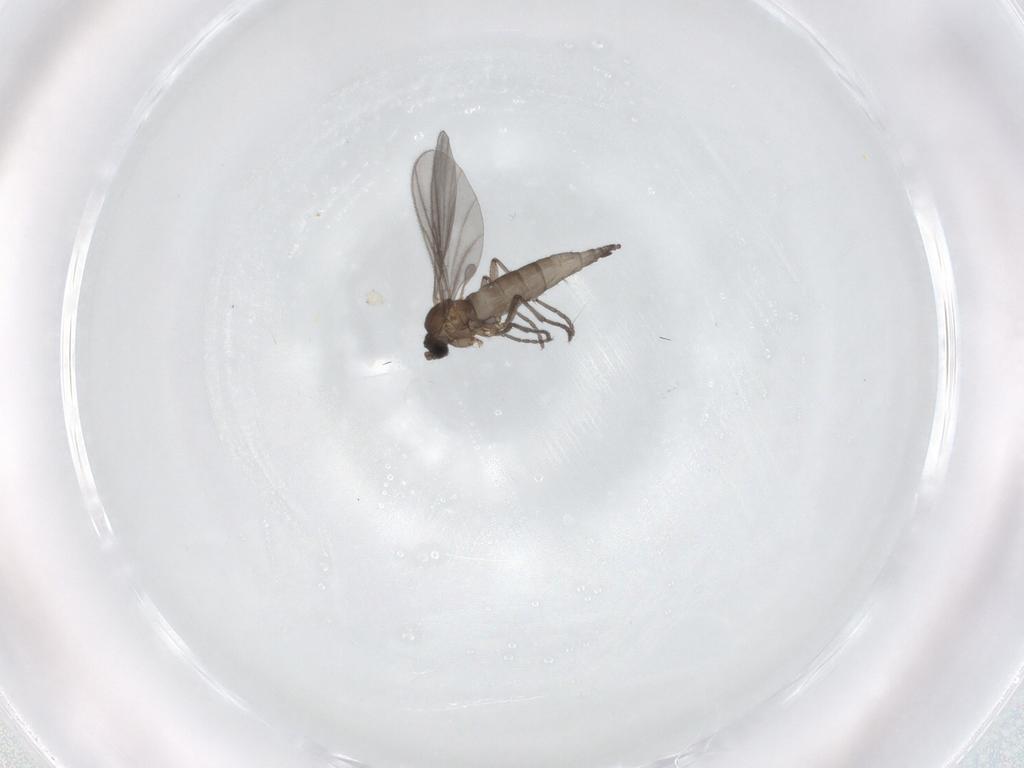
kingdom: Animalia
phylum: Arthropoda
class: Insecta
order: Diptera
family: Sciaridae
